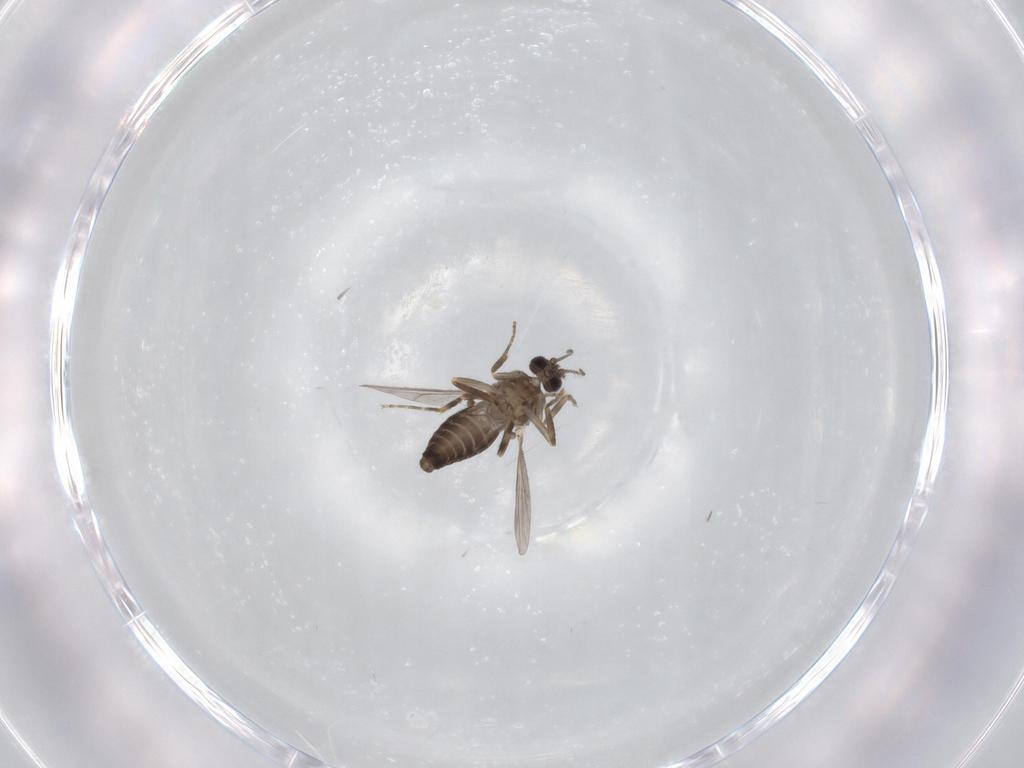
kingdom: Animalia
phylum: Arthropoda
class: Insecta
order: Diptera
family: Ceratopogonidae
